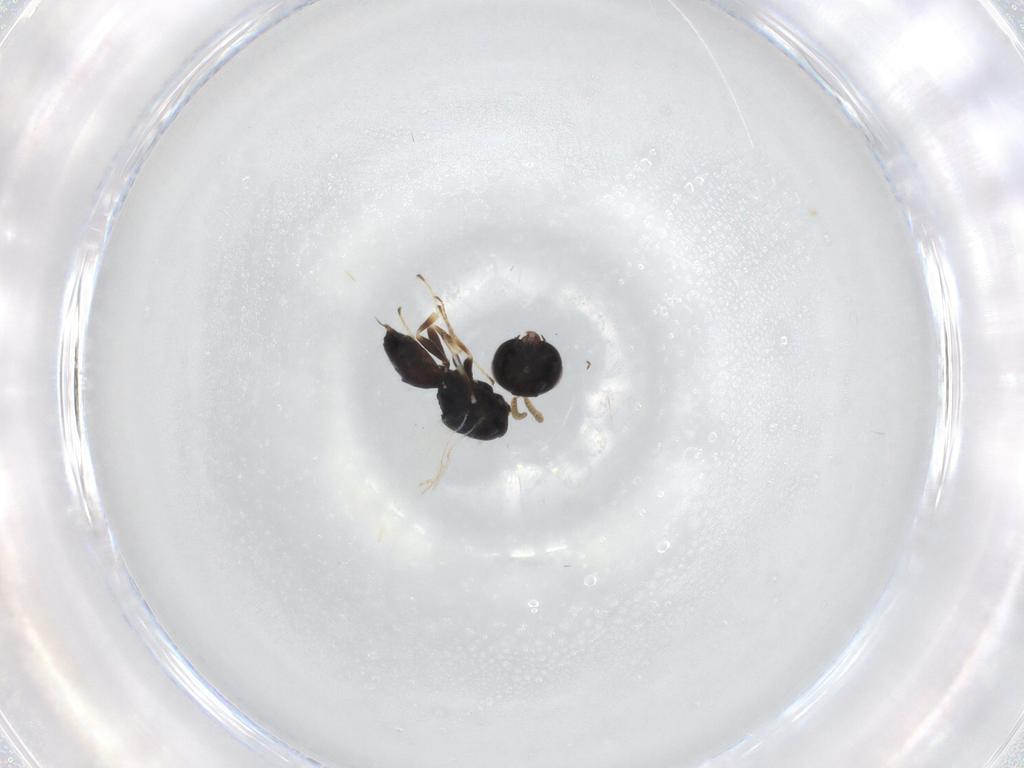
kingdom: Animalia
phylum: Arthropoda
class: Insecta
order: Hymenoptera
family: Pteromalidae
